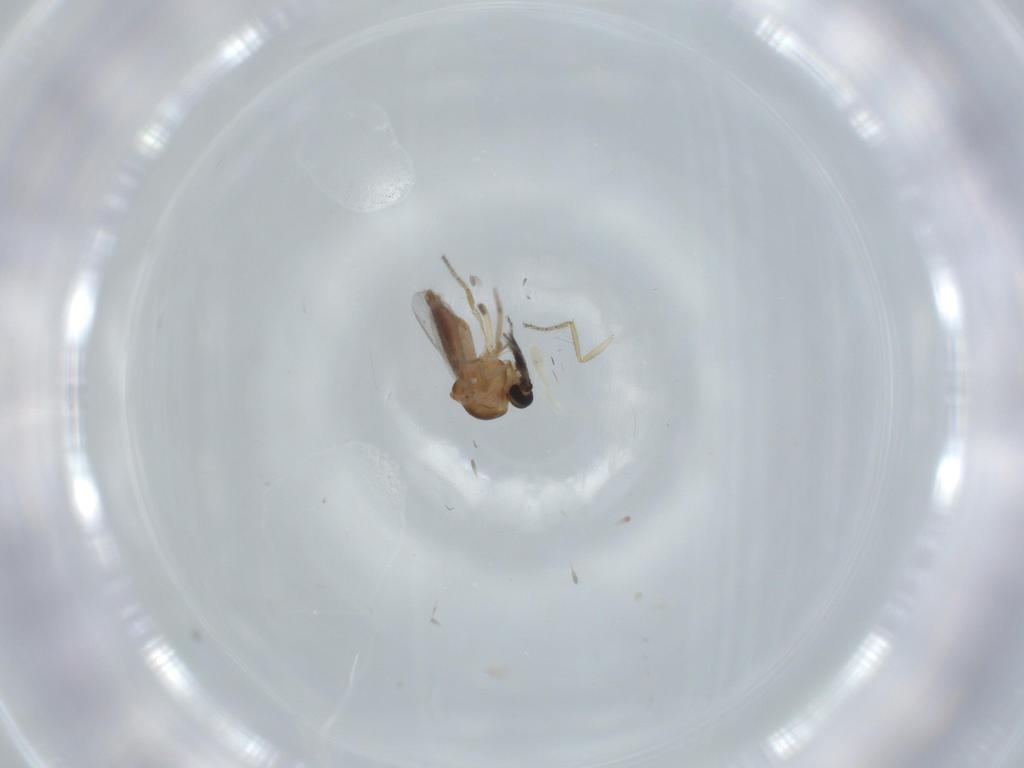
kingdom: Animalia
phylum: Arthropoda
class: Insecta
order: Diptera
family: Ceratopogonidae
